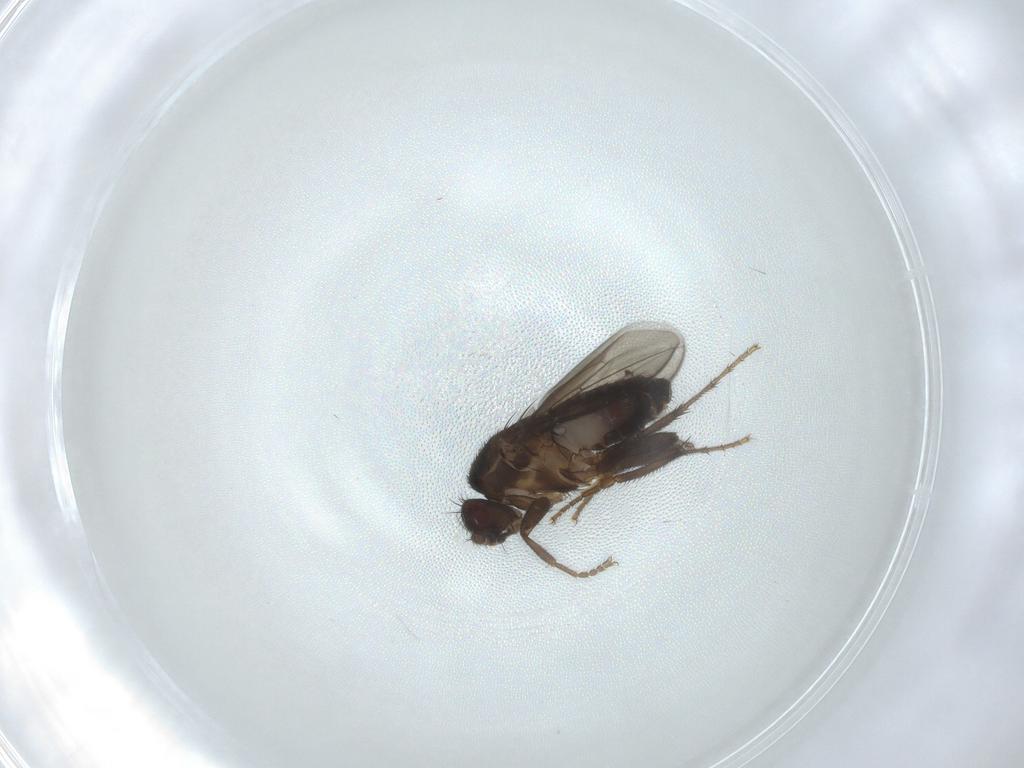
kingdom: Animalia
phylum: Arthropoda
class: Insecta
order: Diptera
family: Sphaeroceridae
